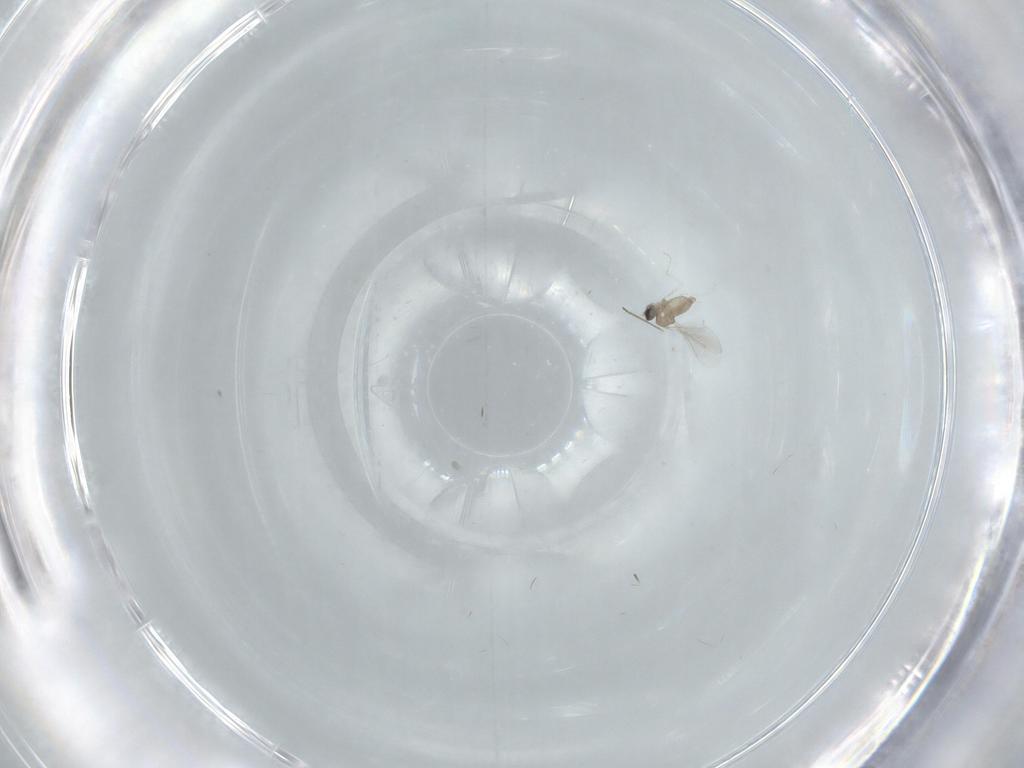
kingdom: Animalia
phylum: Arthropoda
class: Insecta
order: Diptera
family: Cecidomyiidae
